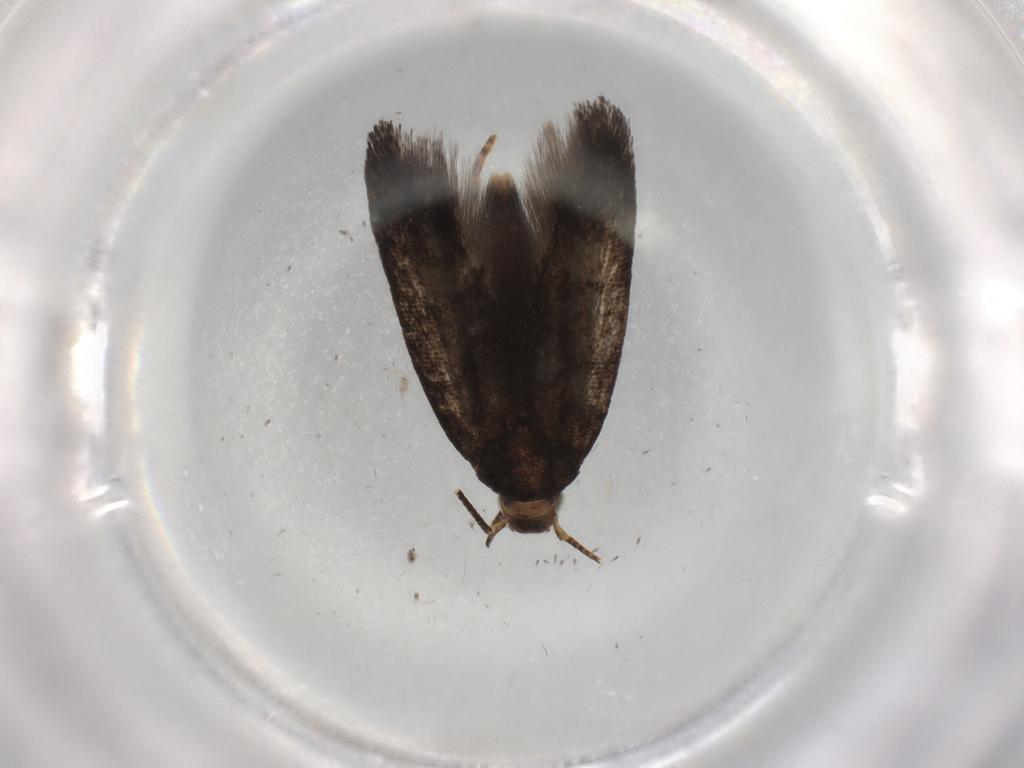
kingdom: Animalia
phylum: Arthropoda
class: Insecta
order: Lepidoptera
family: Gelechiidae
